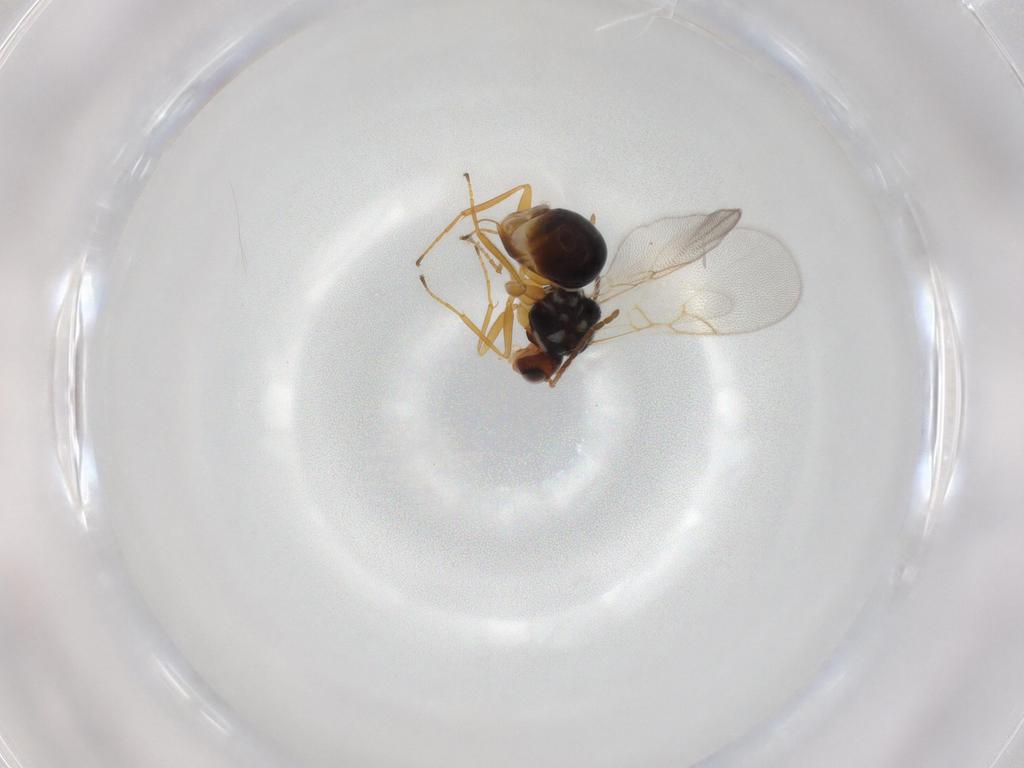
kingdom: Animalia
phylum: Arthropoda
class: Insecta
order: Hymenoptera
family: Figitidae
